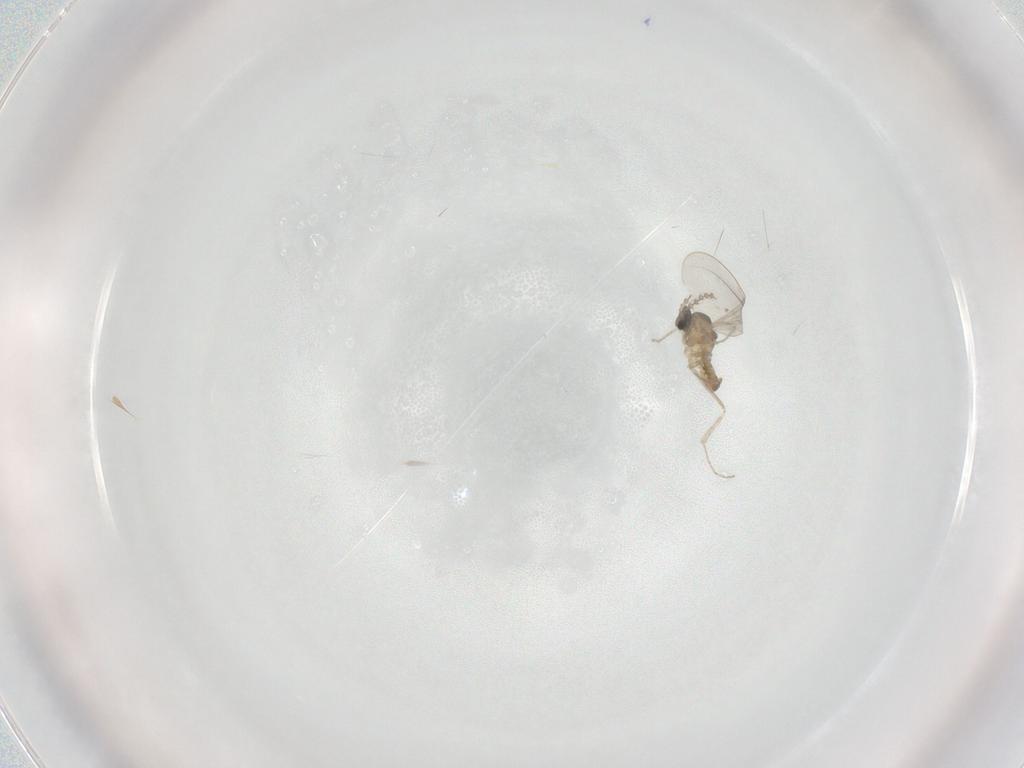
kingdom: Animalia
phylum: Arthropoda
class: Insecta
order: Diptera
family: Cecidomyiidae
